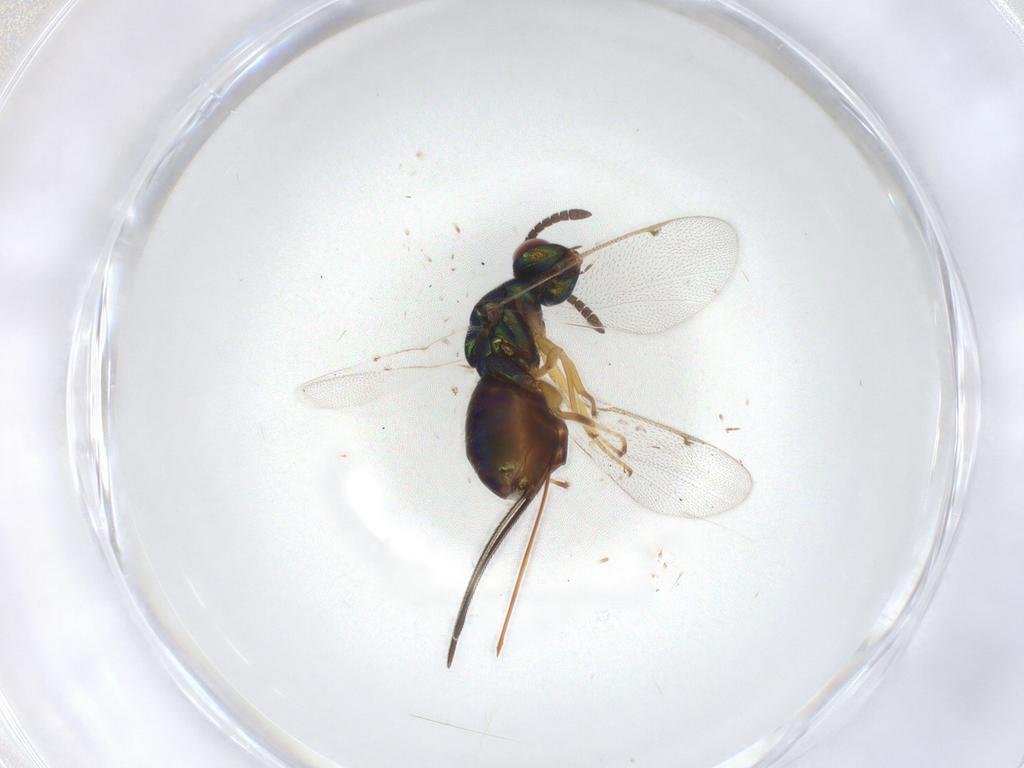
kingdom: Animalia
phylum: Arthropoda
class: Insecta
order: Hymenoptera
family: Torymidae
